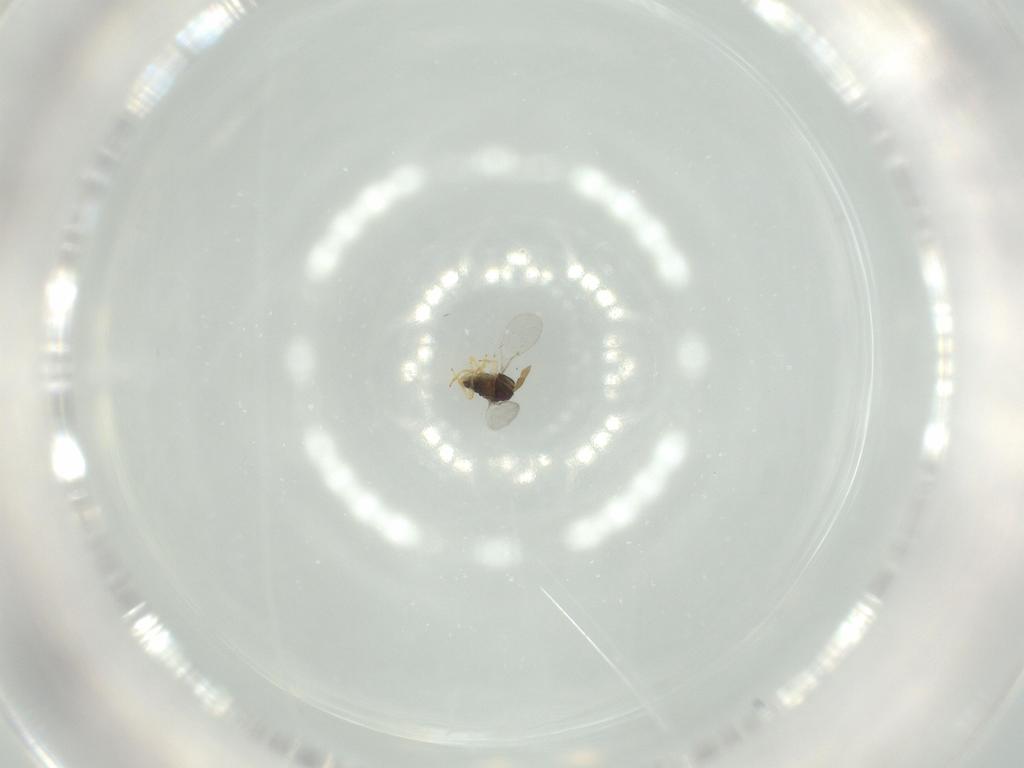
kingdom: Animalia
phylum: Arthropoda
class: Insecta
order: Hymenoptera
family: Encyrtidae
